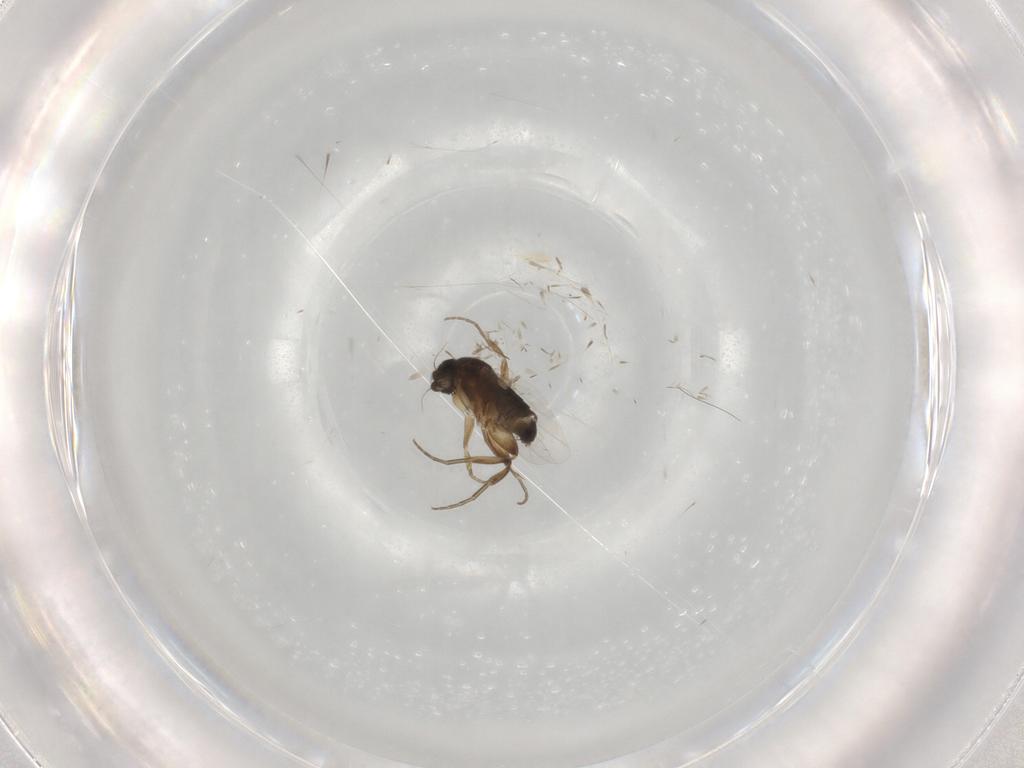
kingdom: Animalia
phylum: Arthropoda
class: Insecta
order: Diptera
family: Phoridae
